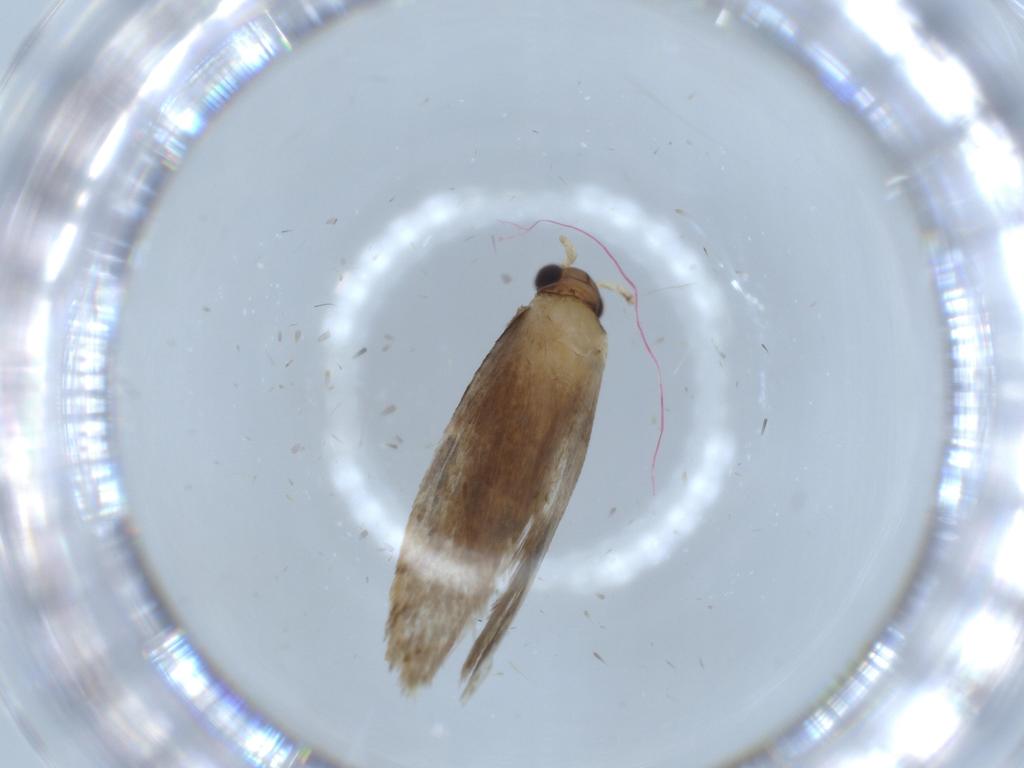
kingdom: Animalia
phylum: Arthropoda
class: Insecta
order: Lepidoptera
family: Tineidae
